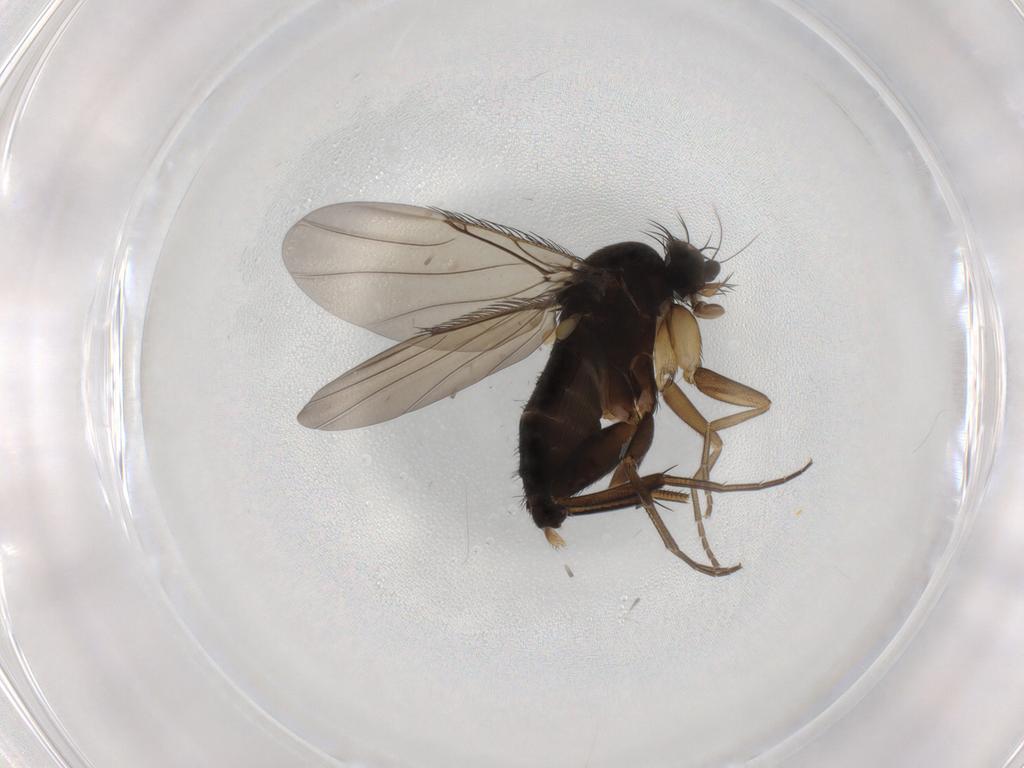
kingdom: Animalia
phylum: Arthropoda
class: Insecta
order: Diptera
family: Phoridae
